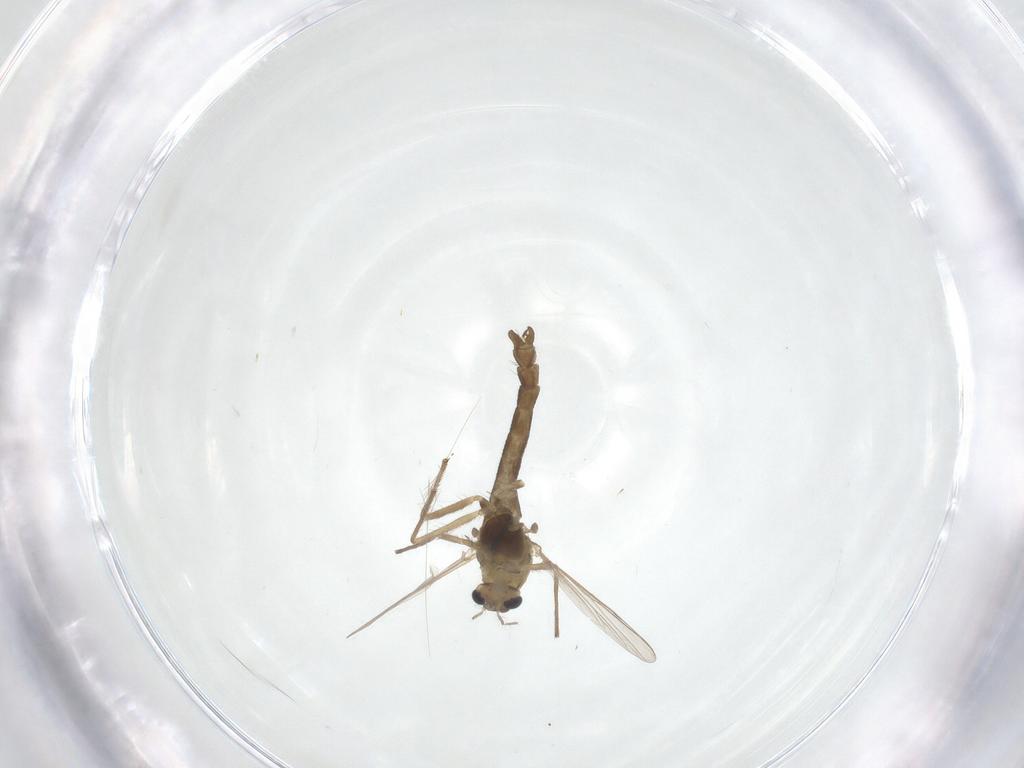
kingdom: Animalia
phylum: Arthropoda
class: Insecta
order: Diptera
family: Chironomidae
